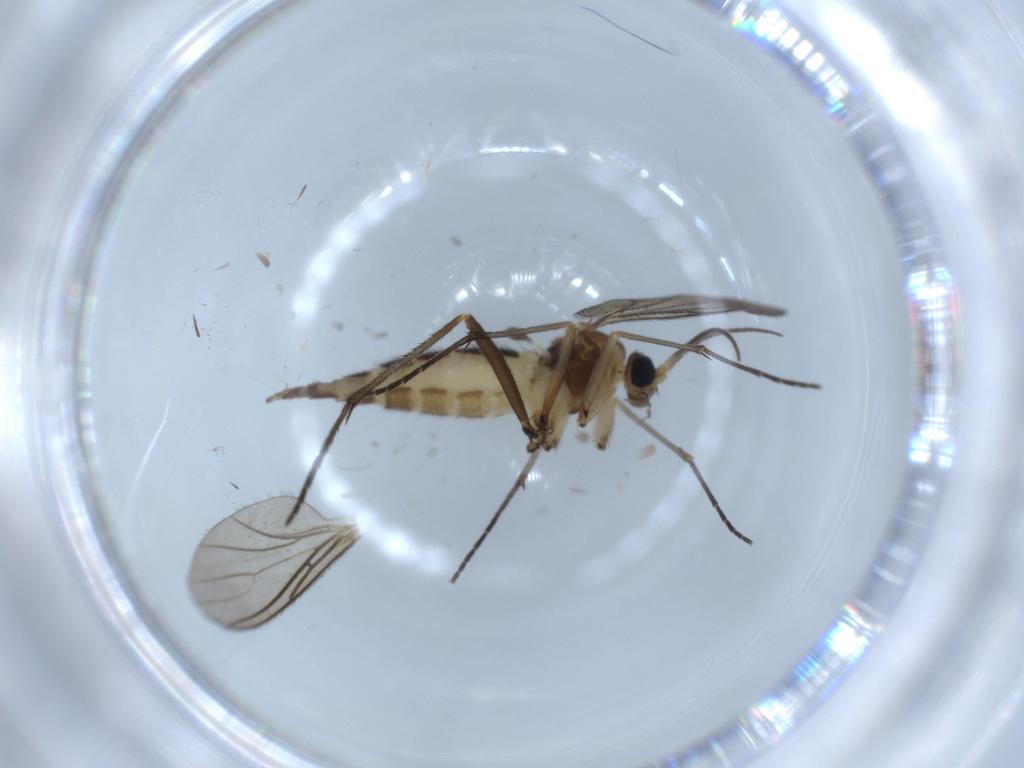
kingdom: Animalia
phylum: Arthropoda
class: Insecta
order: Diptera
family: Sciaridae
